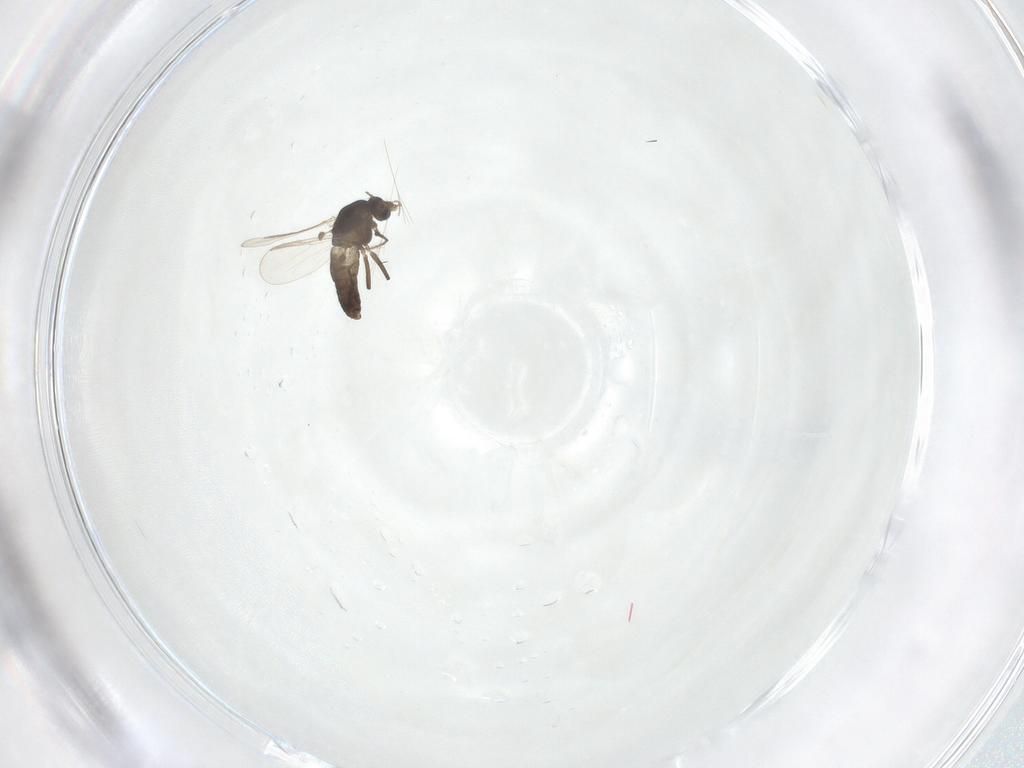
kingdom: Animalia
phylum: Arthropoda
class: Insecta
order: Diptera
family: Chironomidae
